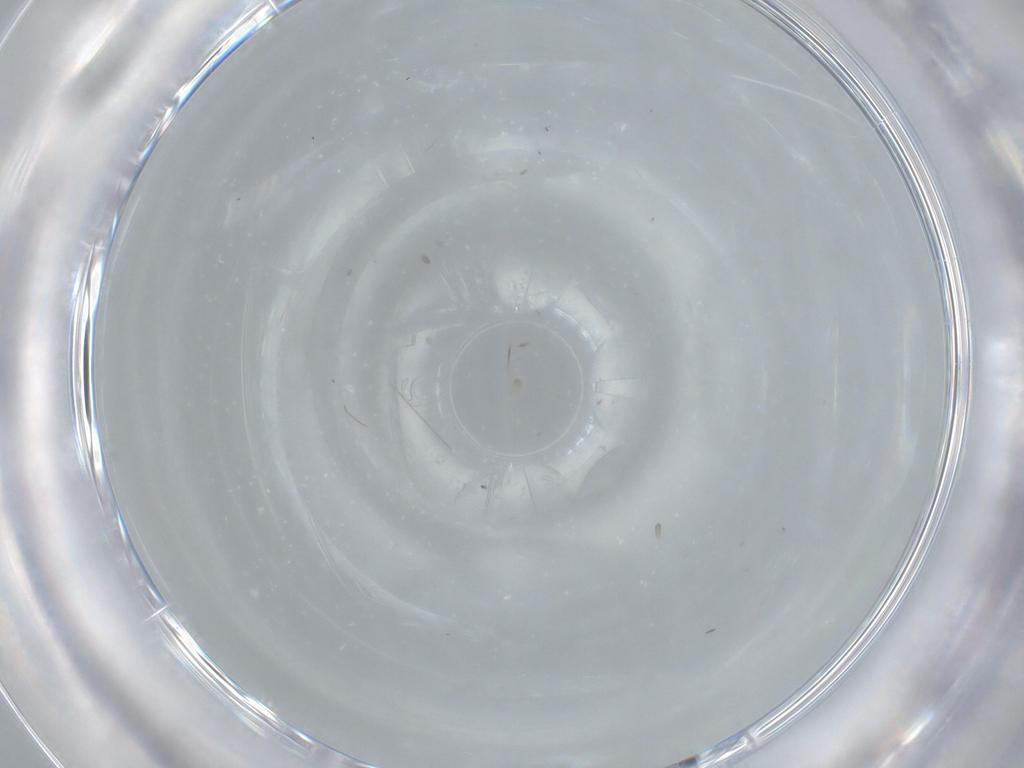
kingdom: Animalia
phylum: Arthropoda
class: Insecta
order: Diptera
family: Cecidomyiidae
